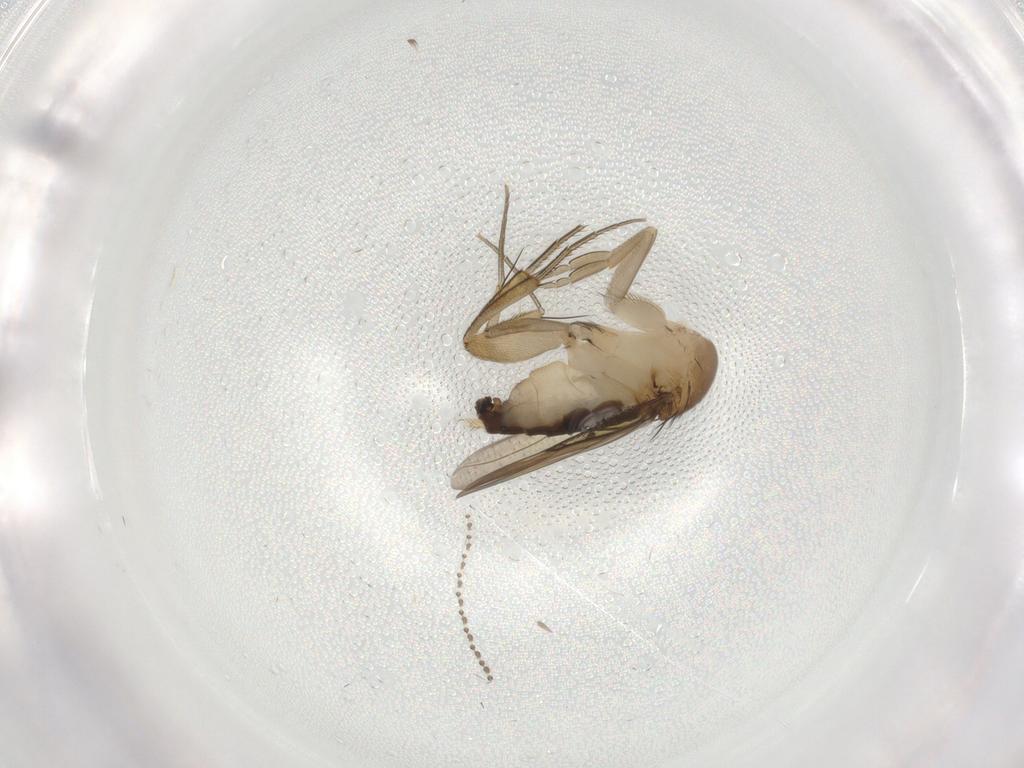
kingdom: Animalia
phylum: Arthropoda
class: Insecta
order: Diptera
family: Phoridae
